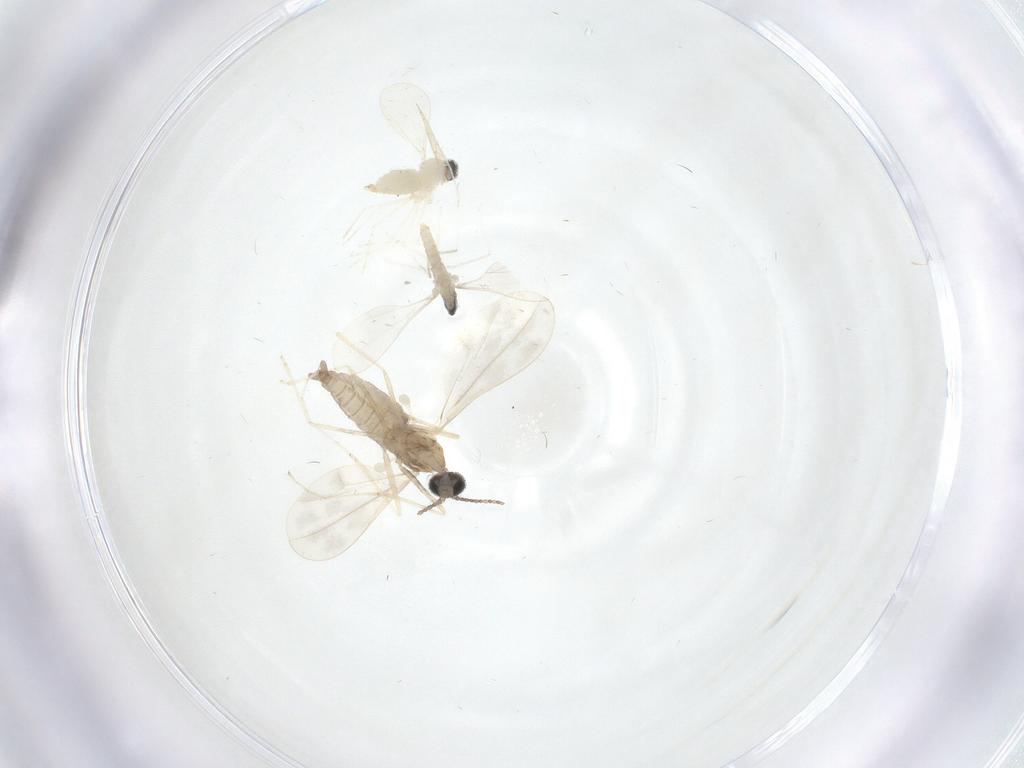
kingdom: Animalia
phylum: Arthropoda
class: Insecta
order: Diptera
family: Cecidomyiidae
